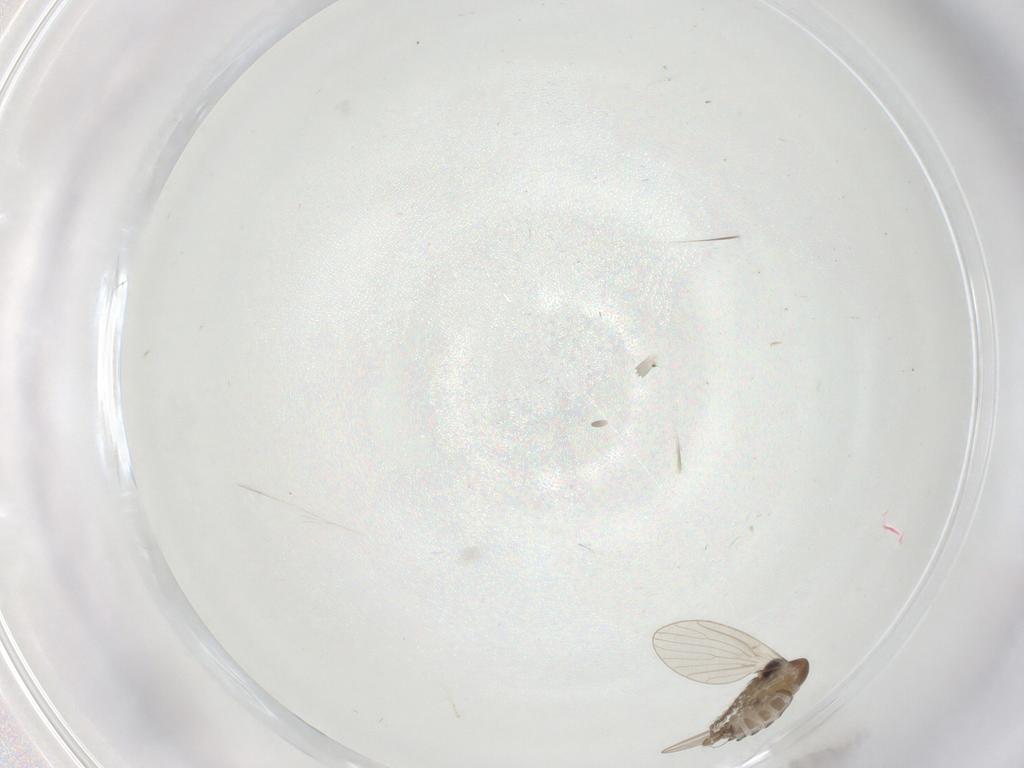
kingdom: Animalia
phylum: Arthropoda
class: Insecta
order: Diptera
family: Cecidomyiidae
